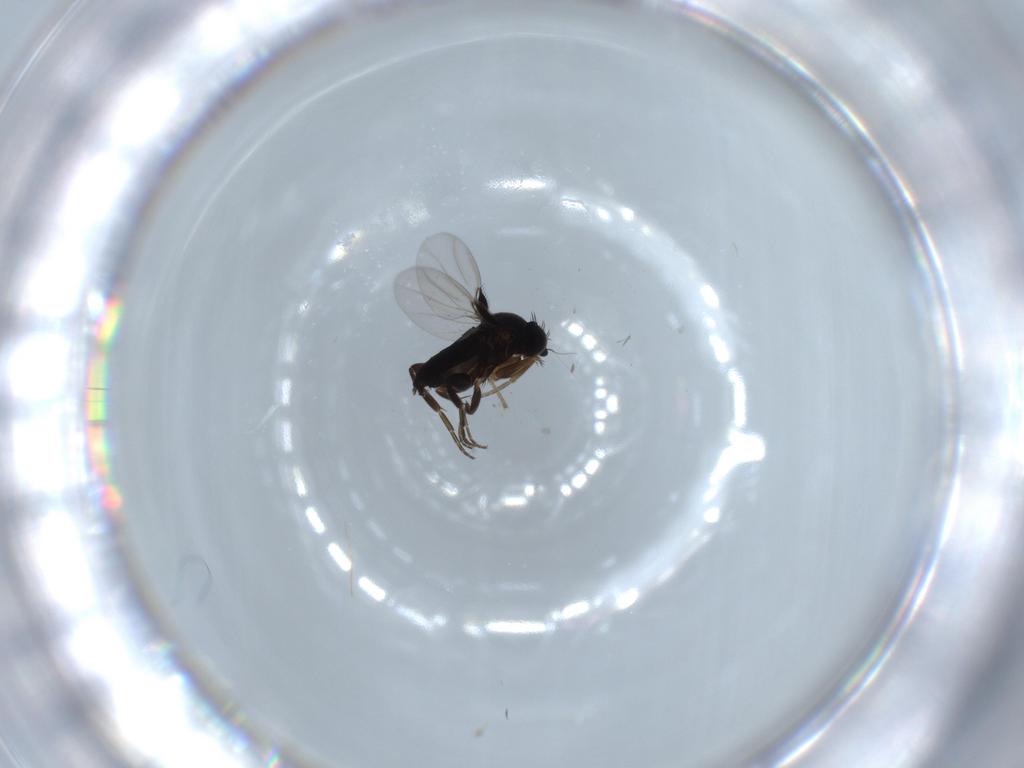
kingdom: Animalia
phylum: Arthropoda
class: Insecta
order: Diptera
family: Phoridae
